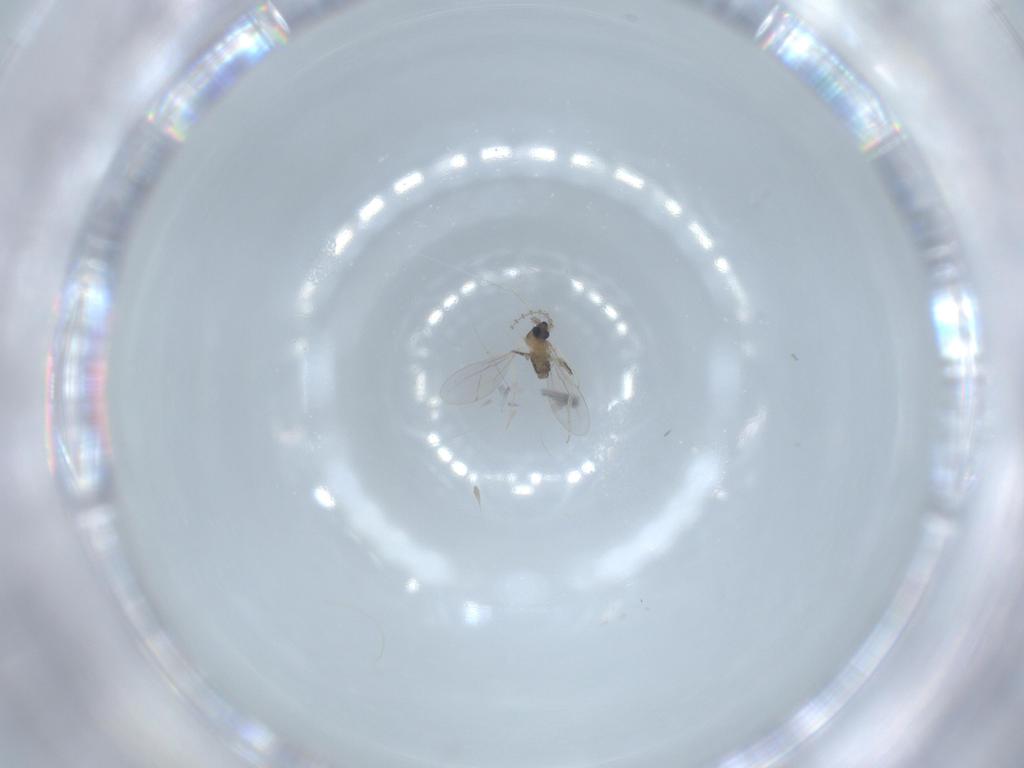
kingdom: Animalia
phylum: Arthropoda
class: Insecta
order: Diptera
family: Cecidomyiidae
